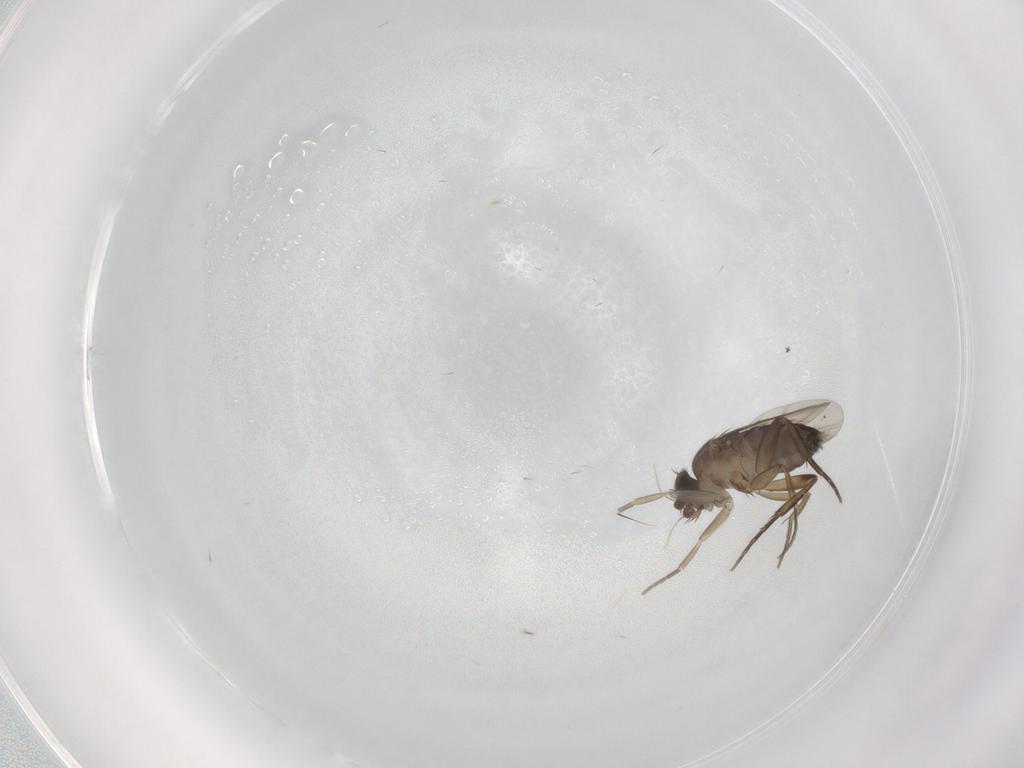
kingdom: Animalia
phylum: Arthropoda
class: Insecta
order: Diptera
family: Phoridae
